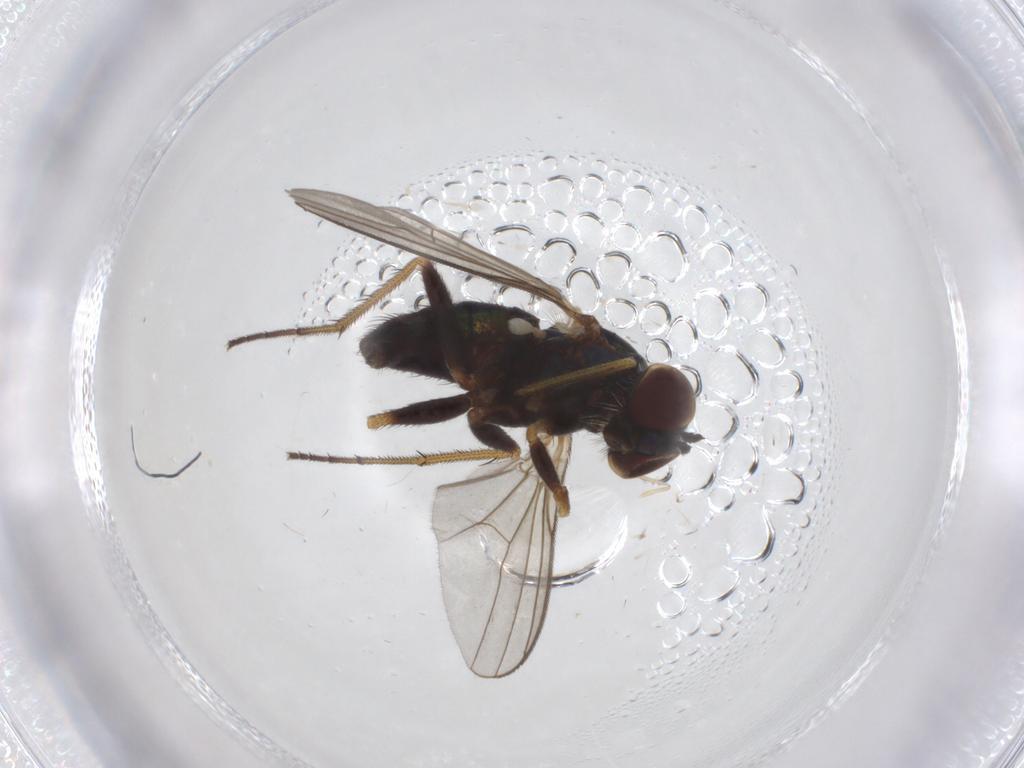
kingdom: Animalia
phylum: Arthropoda
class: Insecta
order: Diptera
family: Dolichopodidae
